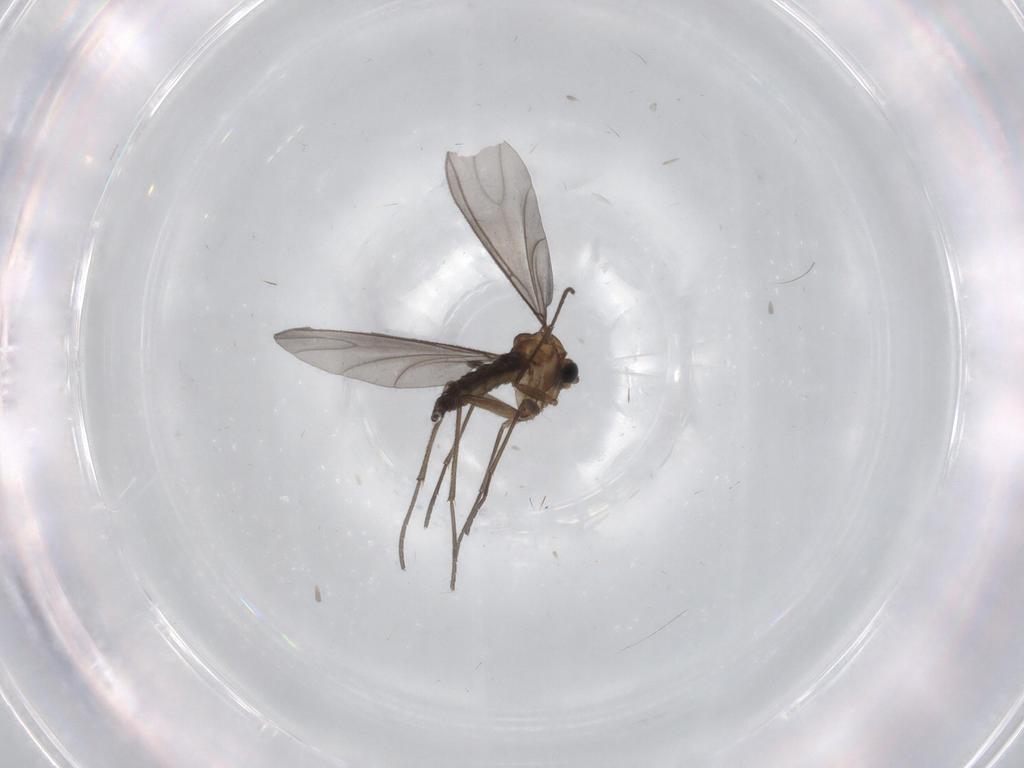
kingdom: Animalia
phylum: Arthropoda
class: Insecta
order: Diptera
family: Sciaridae
